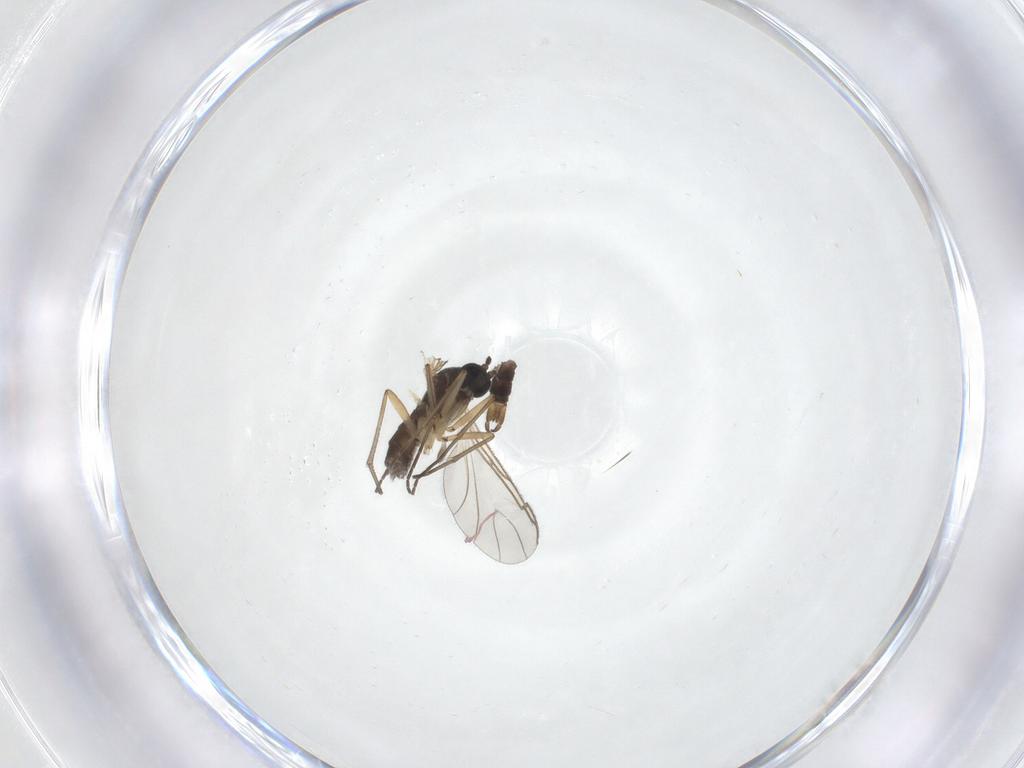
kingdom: Animalia
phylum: Arthropoda
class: Insecta
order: Diptera
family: Sciaridae
